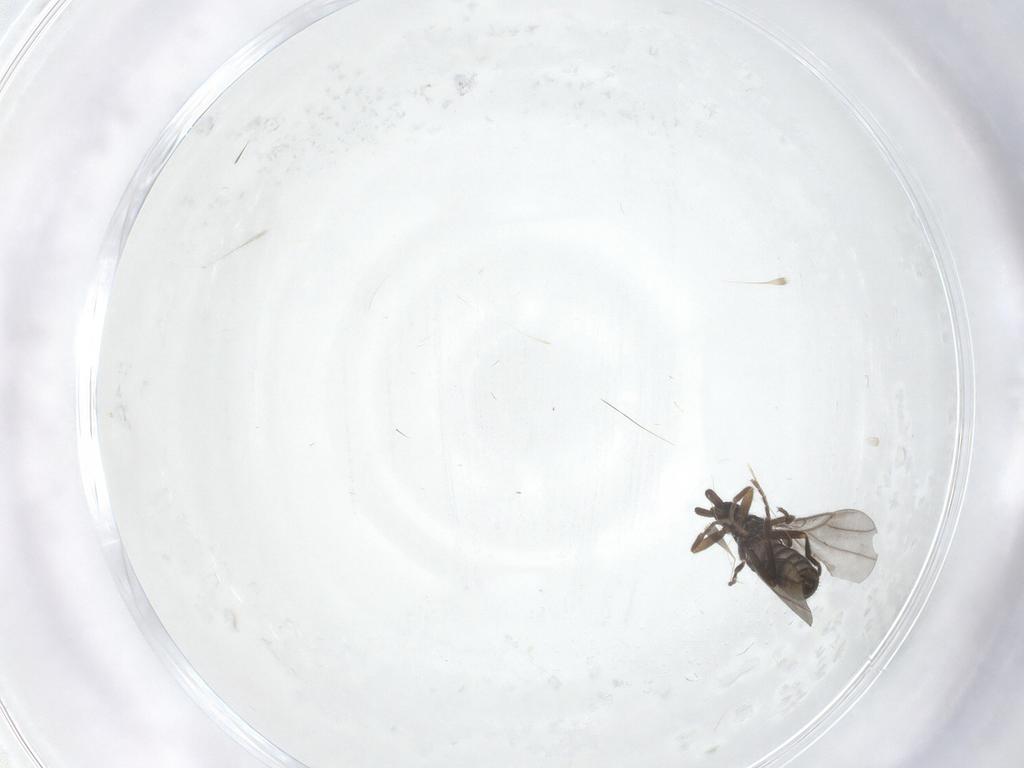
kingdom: Animalia
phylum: Arthropoda
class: Insecta
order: Diptera
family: Phoridae
